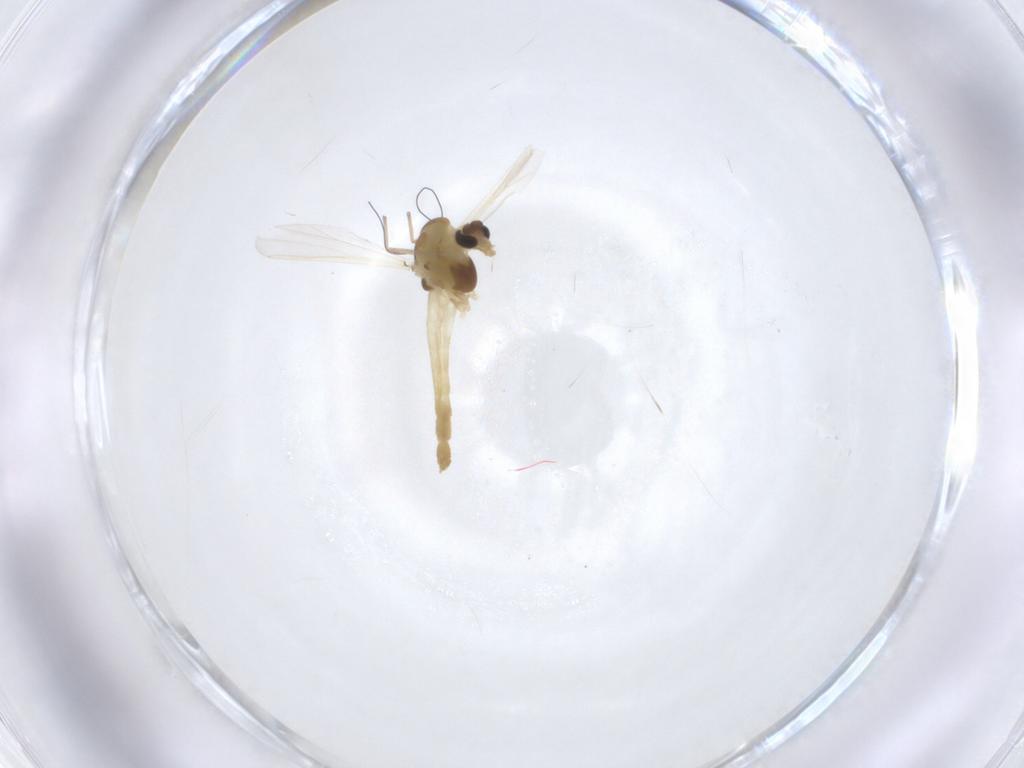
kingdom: Animalia
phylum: Arthropoda
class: Insecta
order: Diptera
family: Chironomidae
